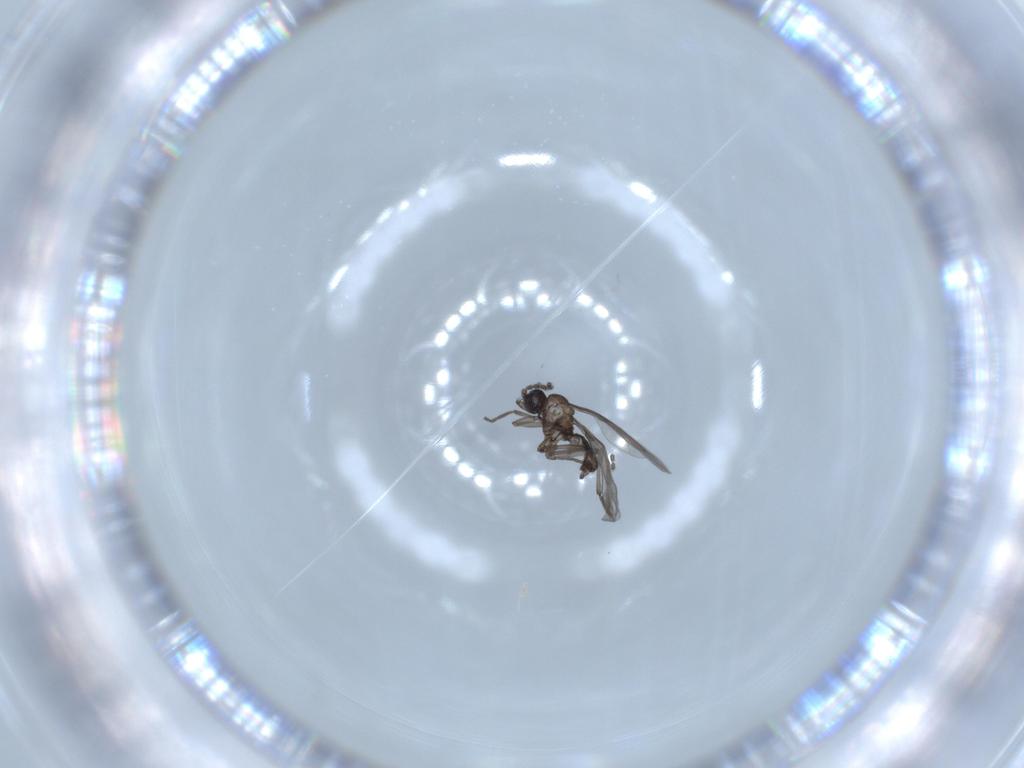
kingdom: Animalia
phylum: Arthropoda
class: Insecta
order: Diptera
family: Sciaridae
